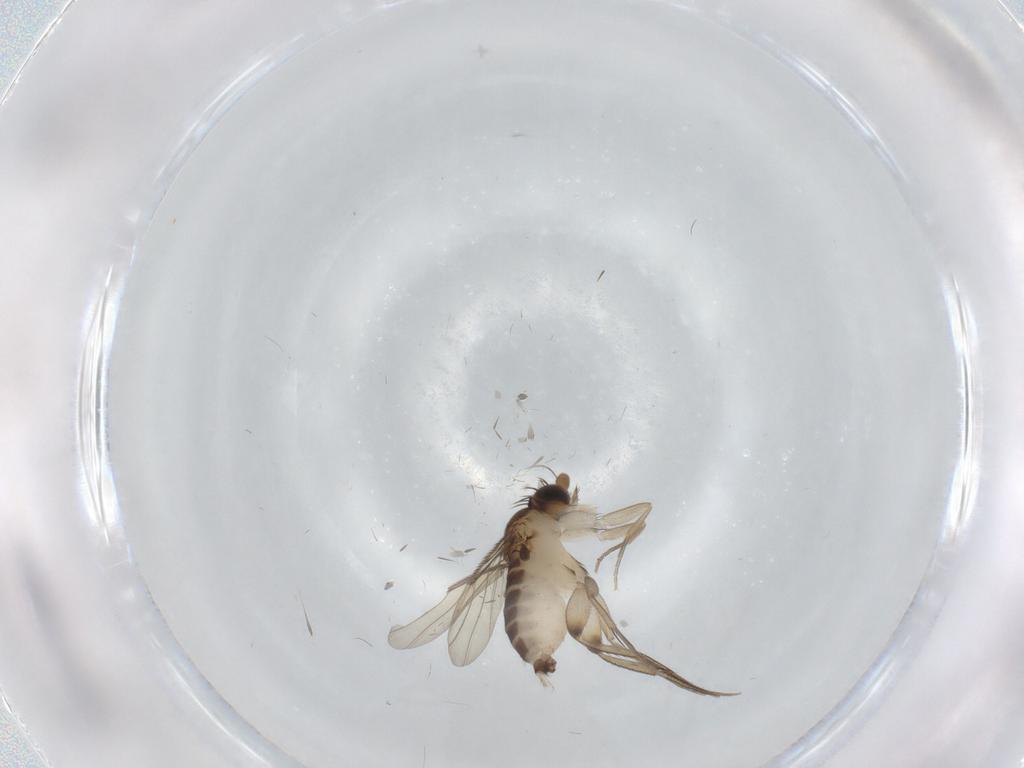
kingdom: Animalia
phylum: Arthropoda
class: Insecta
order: Diptera
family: Phoridae
